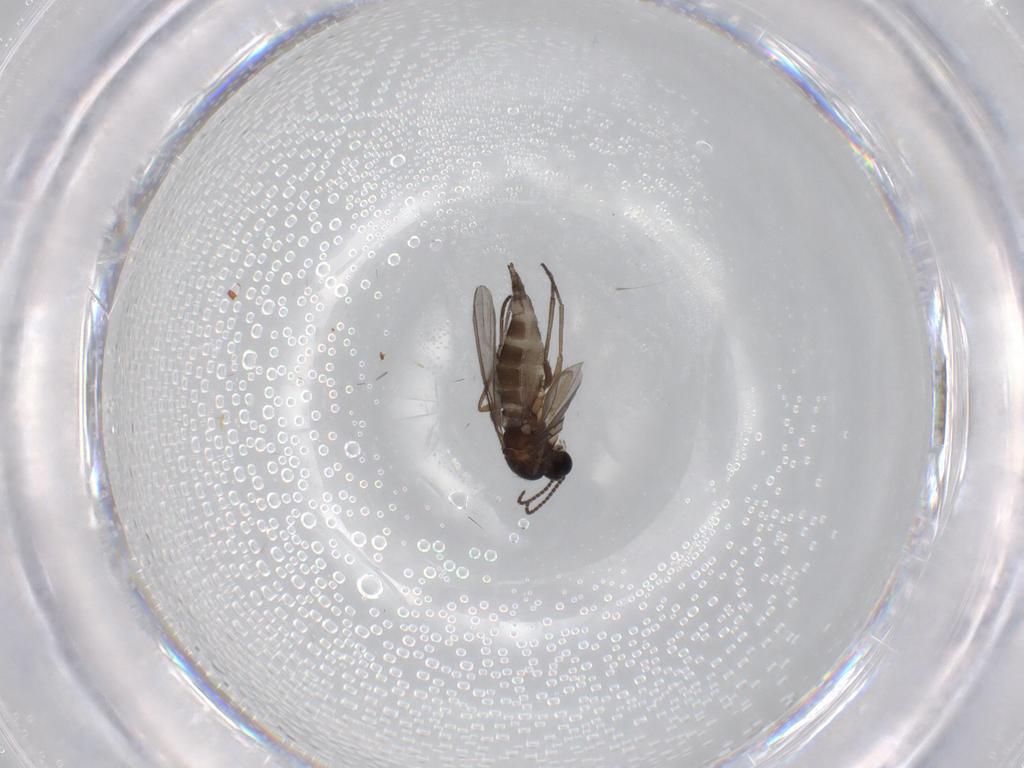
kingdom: Animalia
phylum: Arthropoda
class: Insecta
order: Diptera
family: Sciaridae
